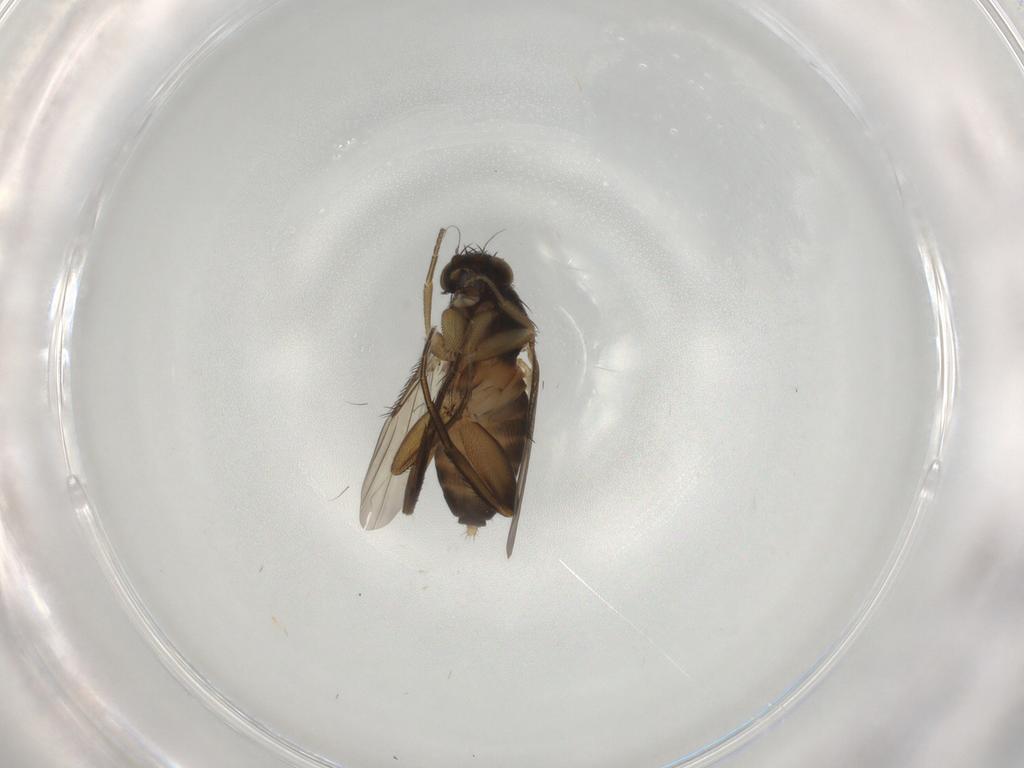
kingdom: Animalia
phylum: Arthropoda
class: Insecta
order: Diptera
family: Phoridae
